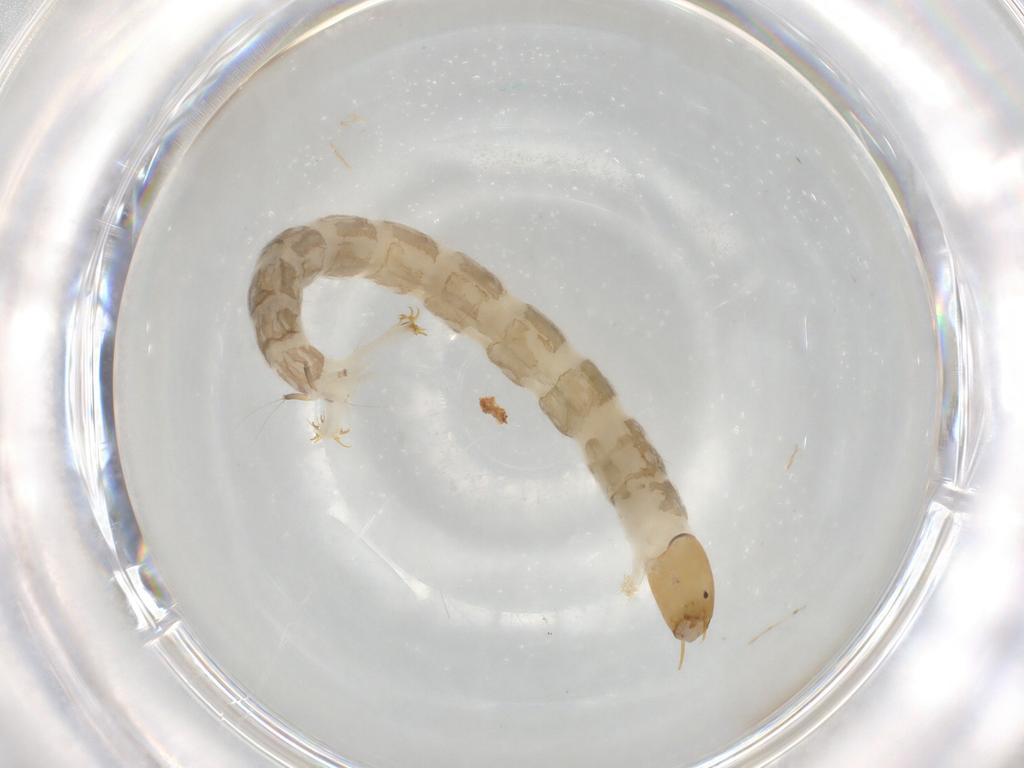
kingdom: Animalia
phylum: Arthropoda
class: Insecta
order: Diptera
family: Chironomidae
